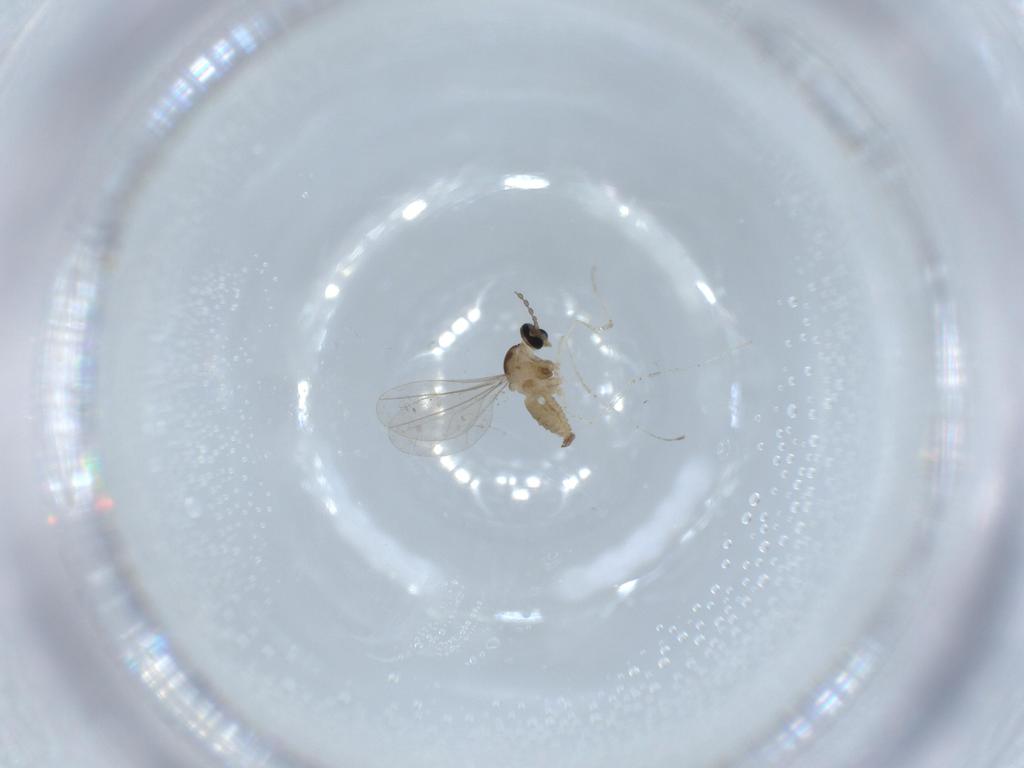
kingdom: Animalia
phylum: Arthropoda
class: Insecta
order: Diptera
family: Cecidomyiidae
